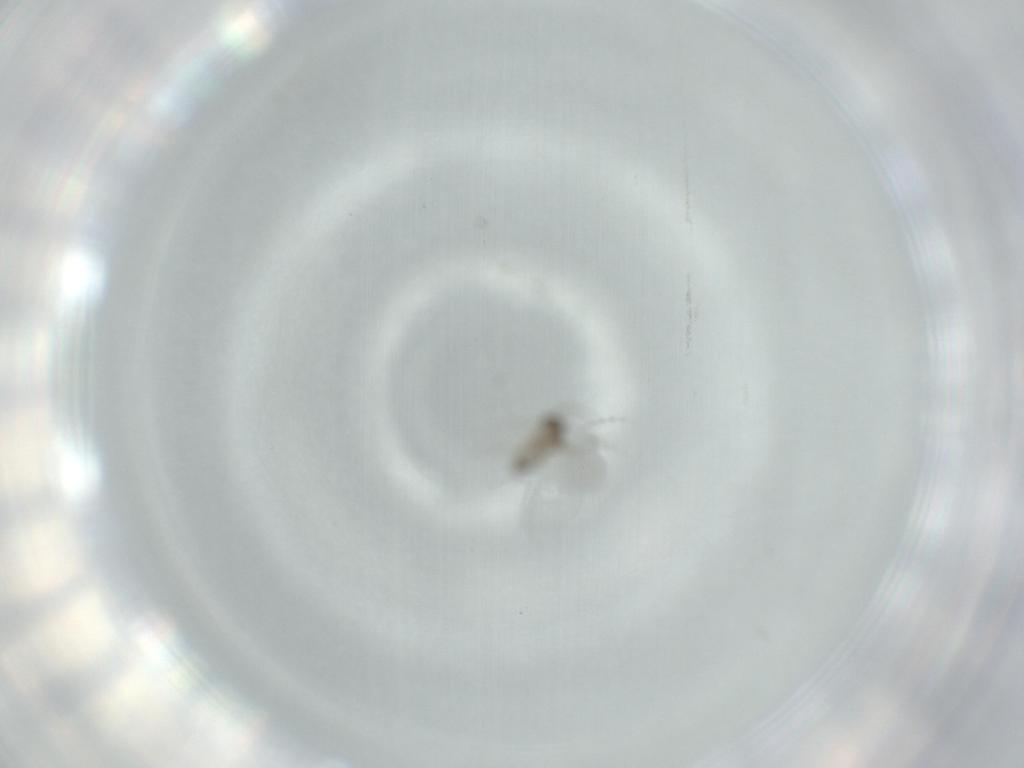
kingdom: Animalia
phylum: Arthropoda
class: Insecta
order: Diptera
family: Cecidomyiidae
